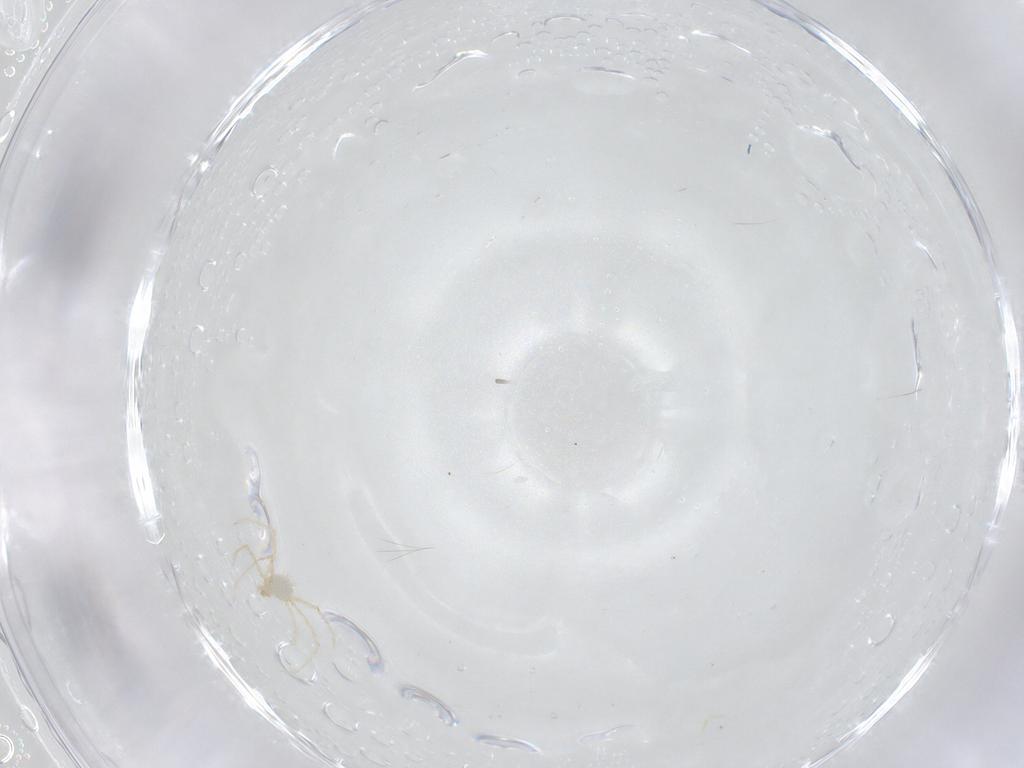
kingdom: Animalia
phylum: Arthropoda
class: Arachnida
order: Trombidiformes
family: Erythraeidae
